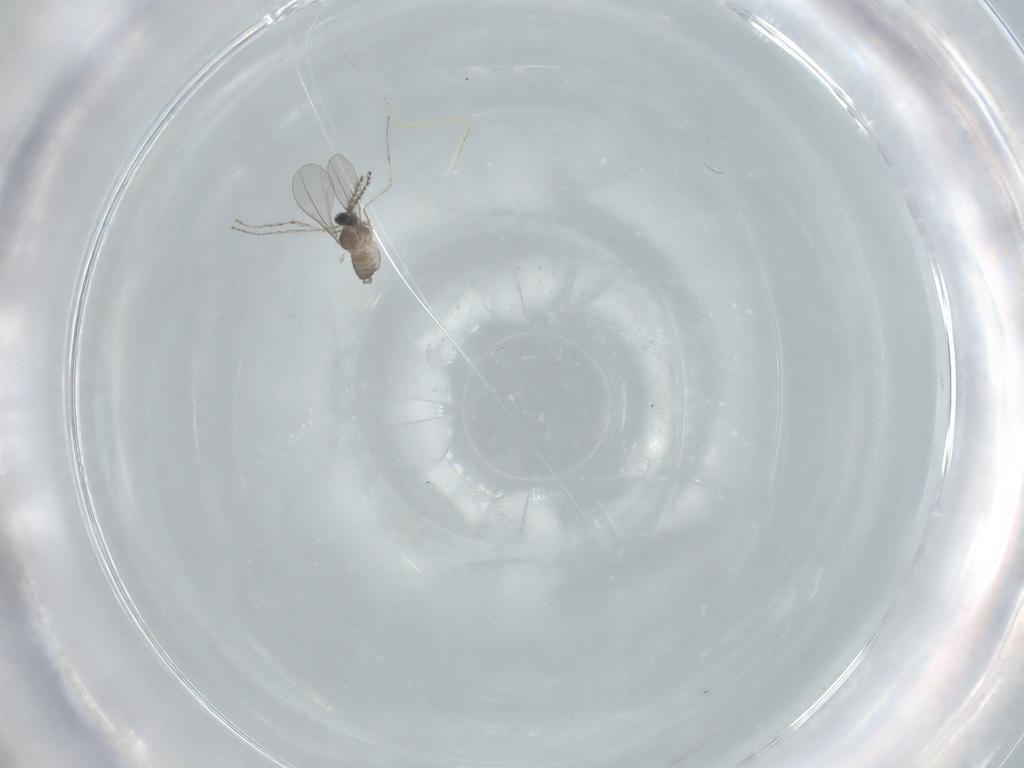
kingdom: Animalia
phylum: Arthropoda
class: Insecta
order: Diptera
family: Cecidomyiidae
